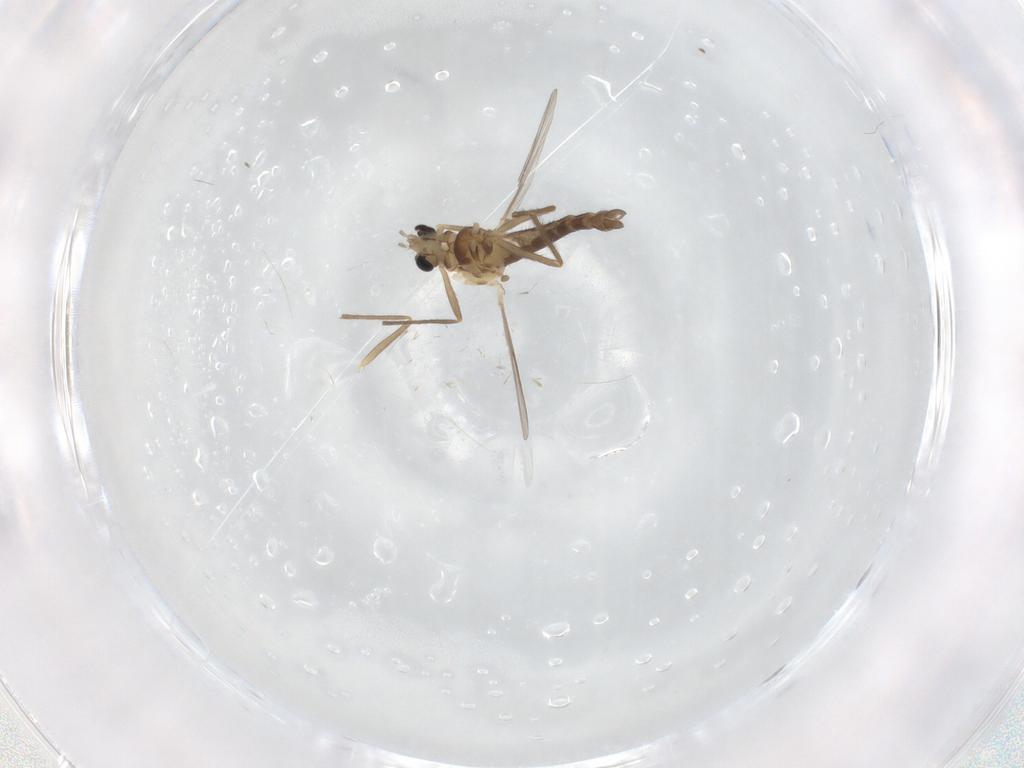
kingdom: Animalia
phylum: Arthropoda
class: Insecta
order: Diptera
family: Chironomidae
